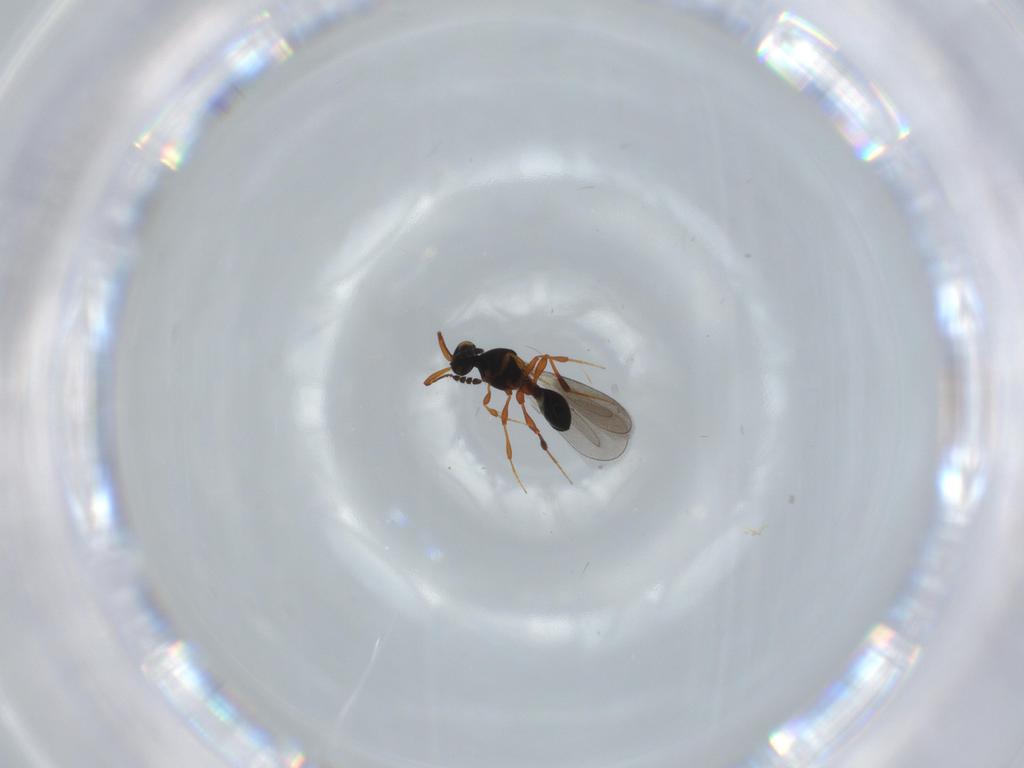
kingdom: Animalia
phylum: Arthropoda
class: Insecta
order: Hymenoptera
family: Platygastridae
